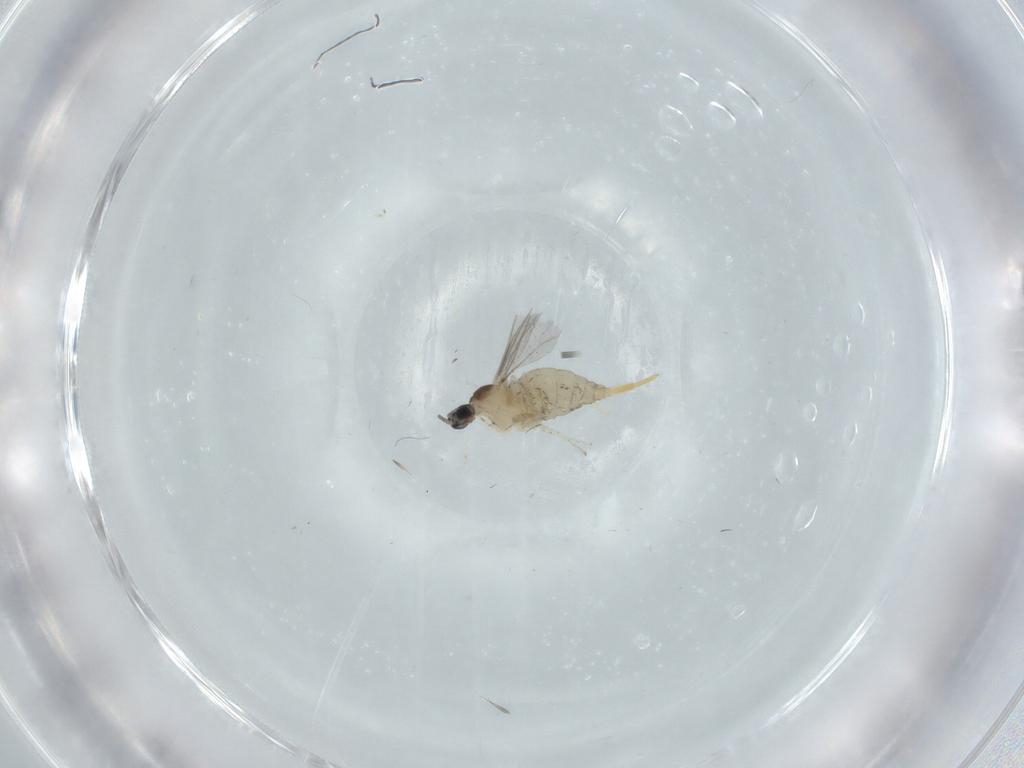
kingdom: Animalia
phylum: Arthropoda
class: Insecta
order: Diptera
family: Cecidomyiidae
